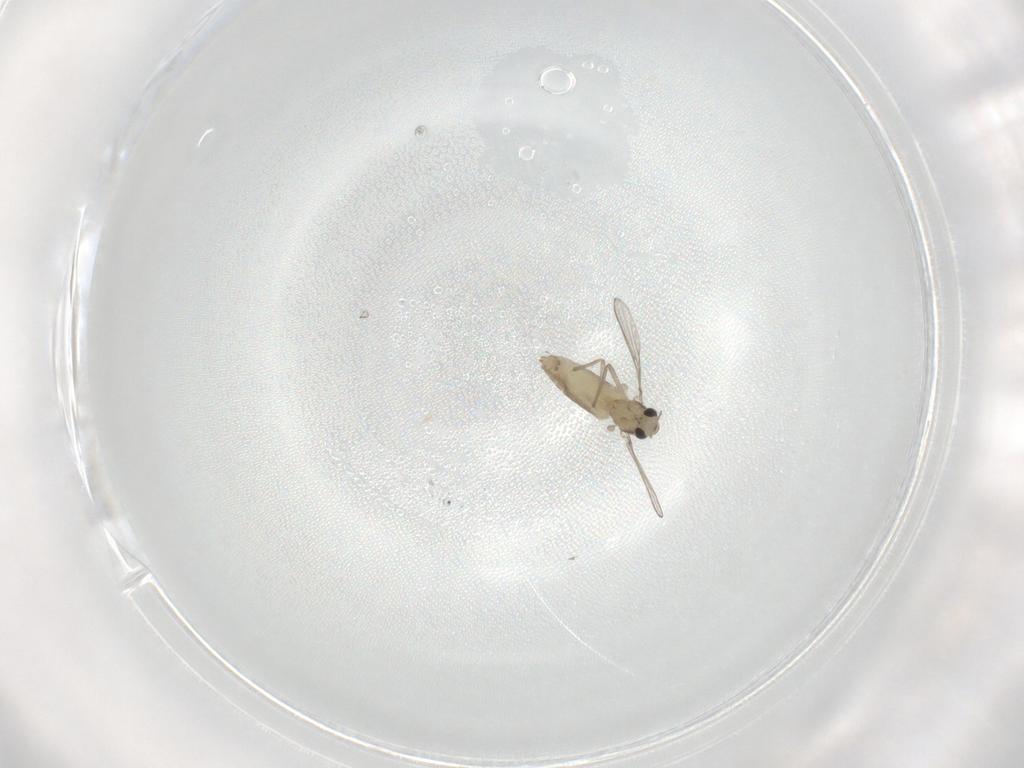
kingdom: Animalia
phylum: Arthropoda
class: Insecta
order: Diptera
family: Chironomidae
